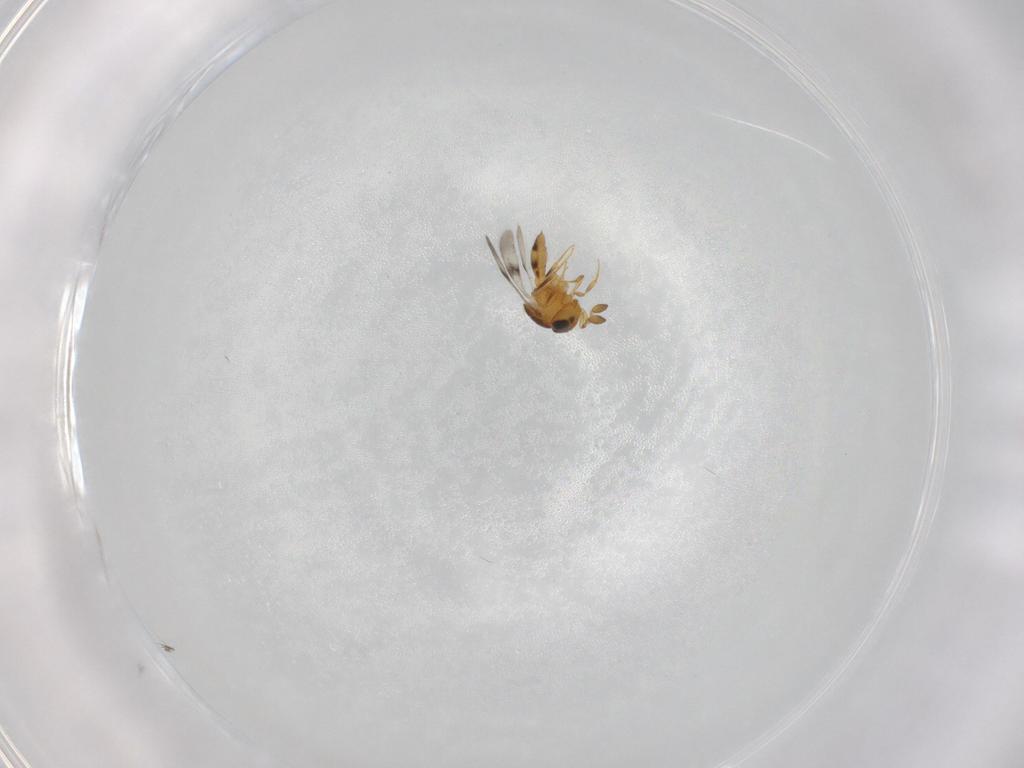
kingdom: Animalia
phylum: Arthropoda
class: Insecta
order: Hymenoptera
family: Scelionidae
